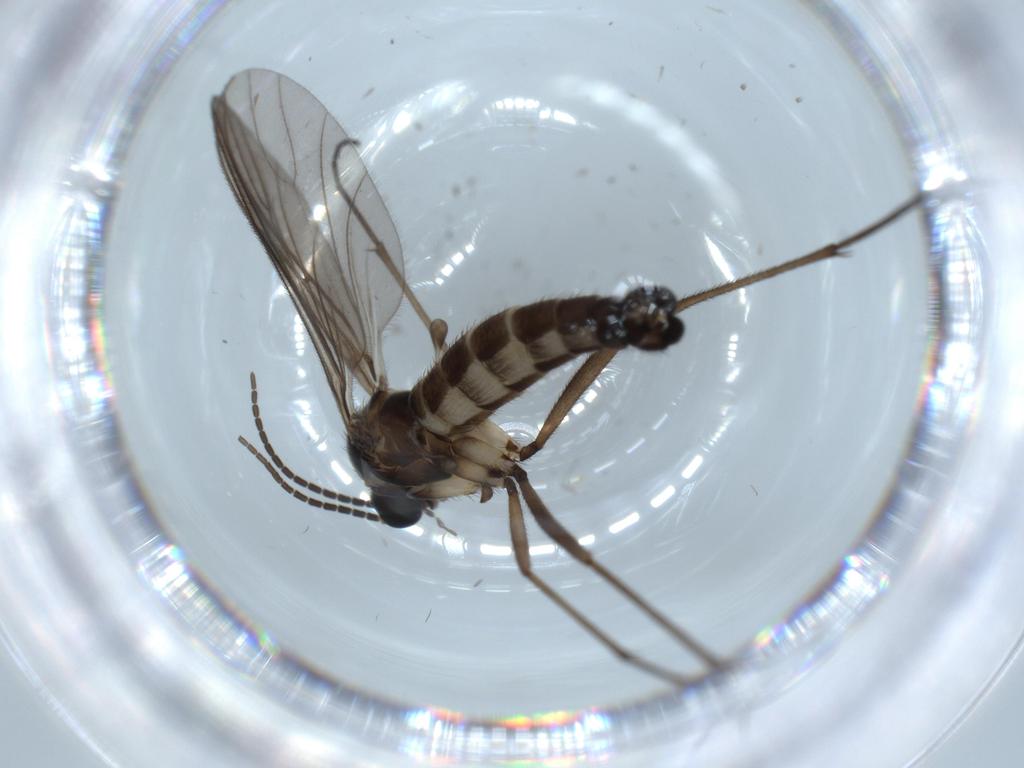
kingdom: Animalia
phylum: Arthropoda
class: Insecta
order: Diptera
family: Sciaridae
